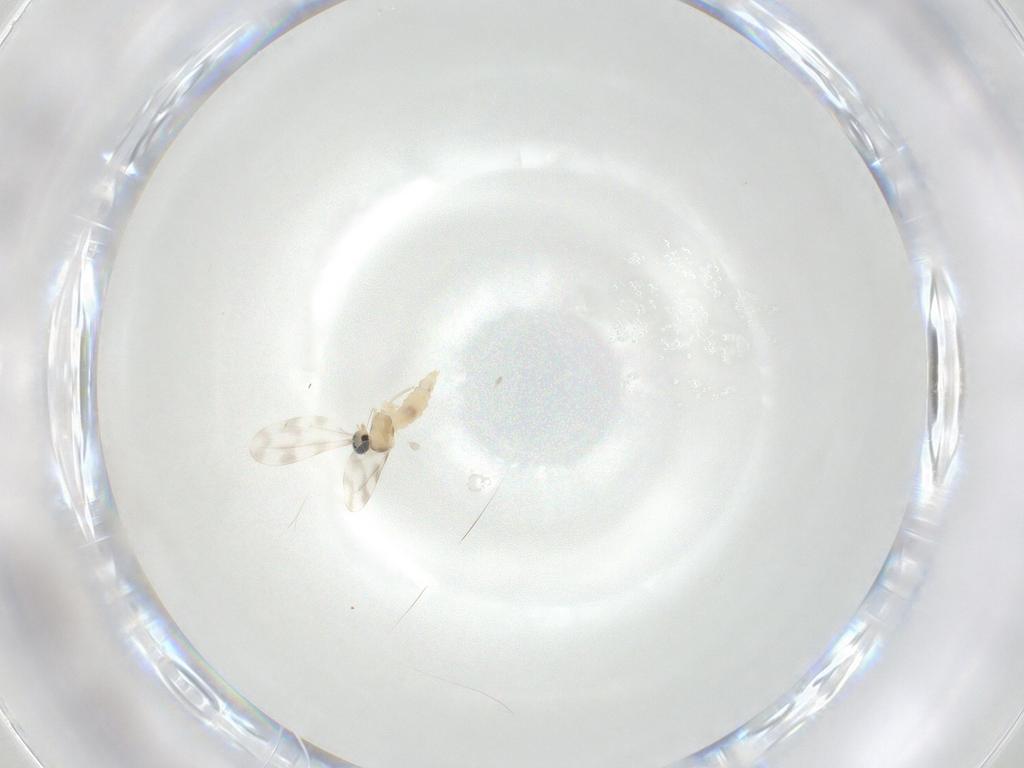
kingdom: Animalia
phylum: Arthropoda
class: Insecta
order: Diptera
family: Cecidomyiidae
